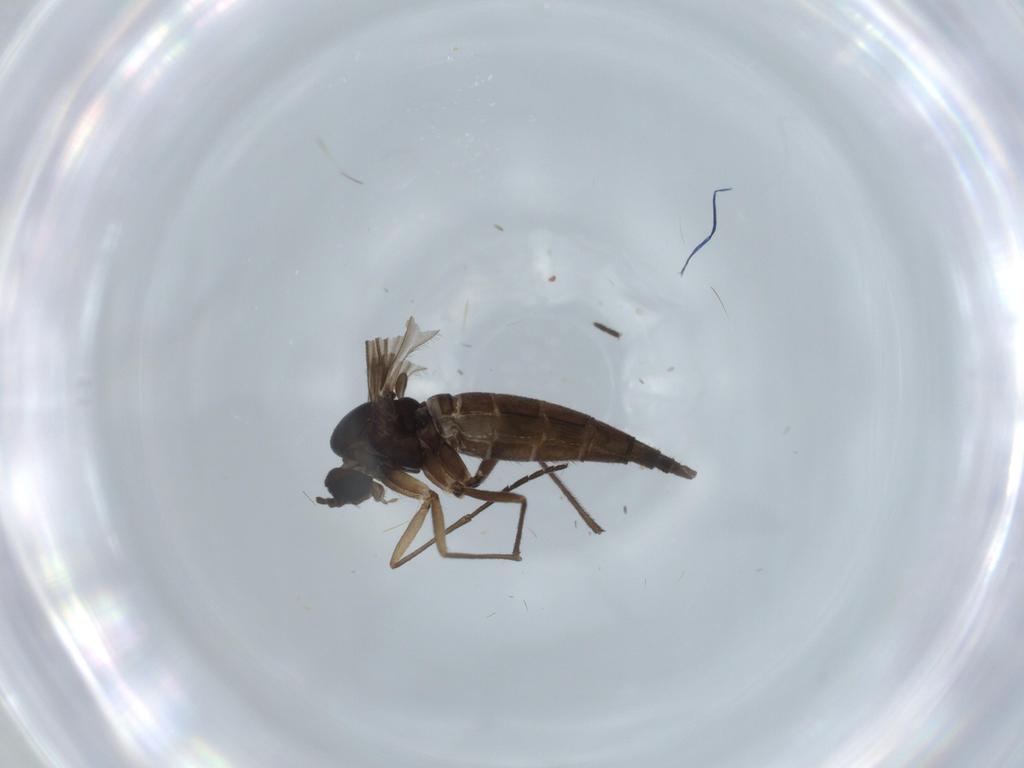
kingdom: Animalia
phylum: Arthropoda
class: Insecta
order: Diptera
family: Sciaridae
